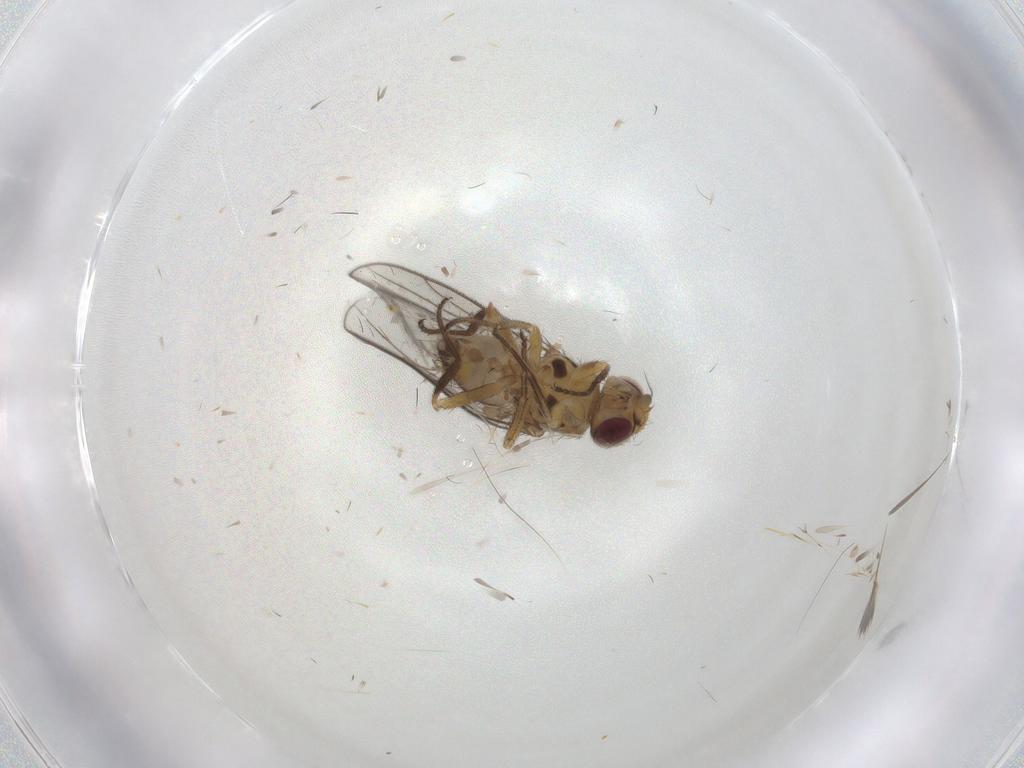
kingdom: Animalia
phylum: Arthropoda
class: Insecta
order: Diptera
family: Chloropidae
